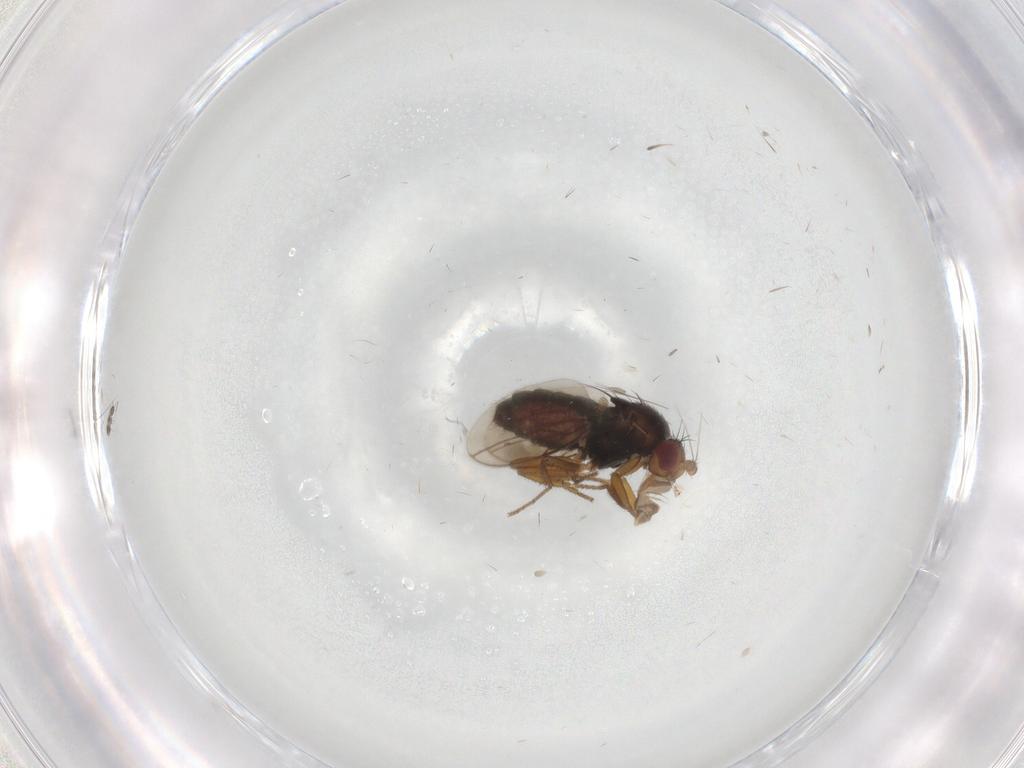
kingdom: Animalia
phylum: Arthropoda
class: Insecta
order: Diptera
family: Sphaeroceridae
